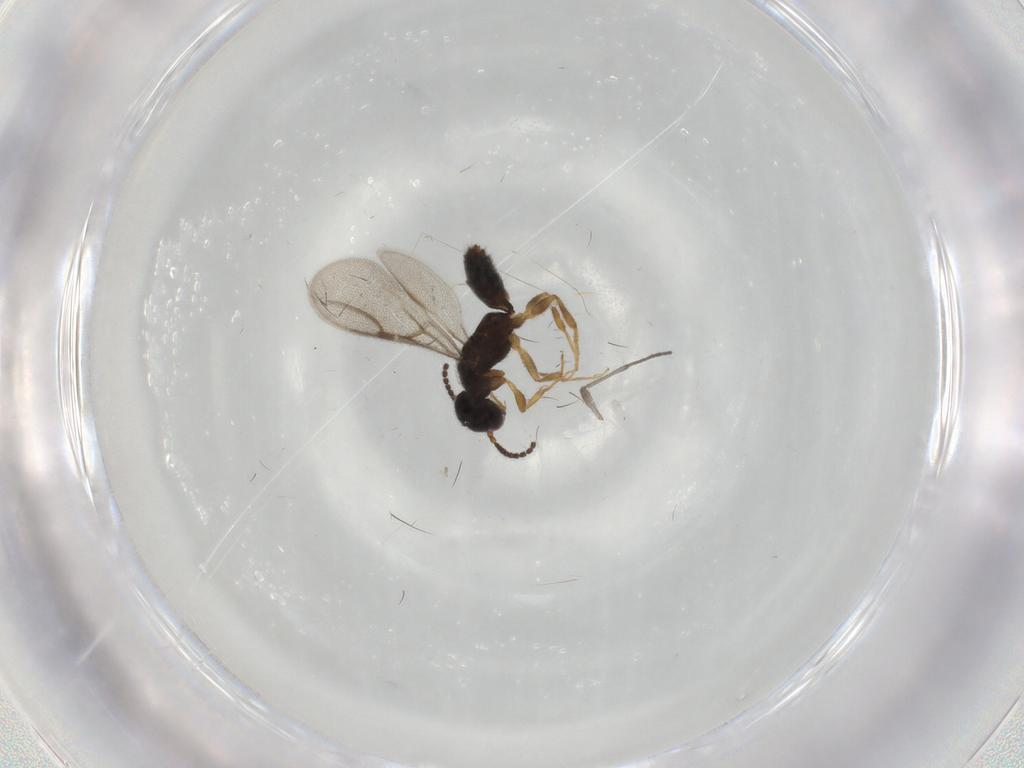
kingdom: Animalia
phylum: Arthropoda
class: Insecta
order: Hymenoptera
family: Bethylidae
